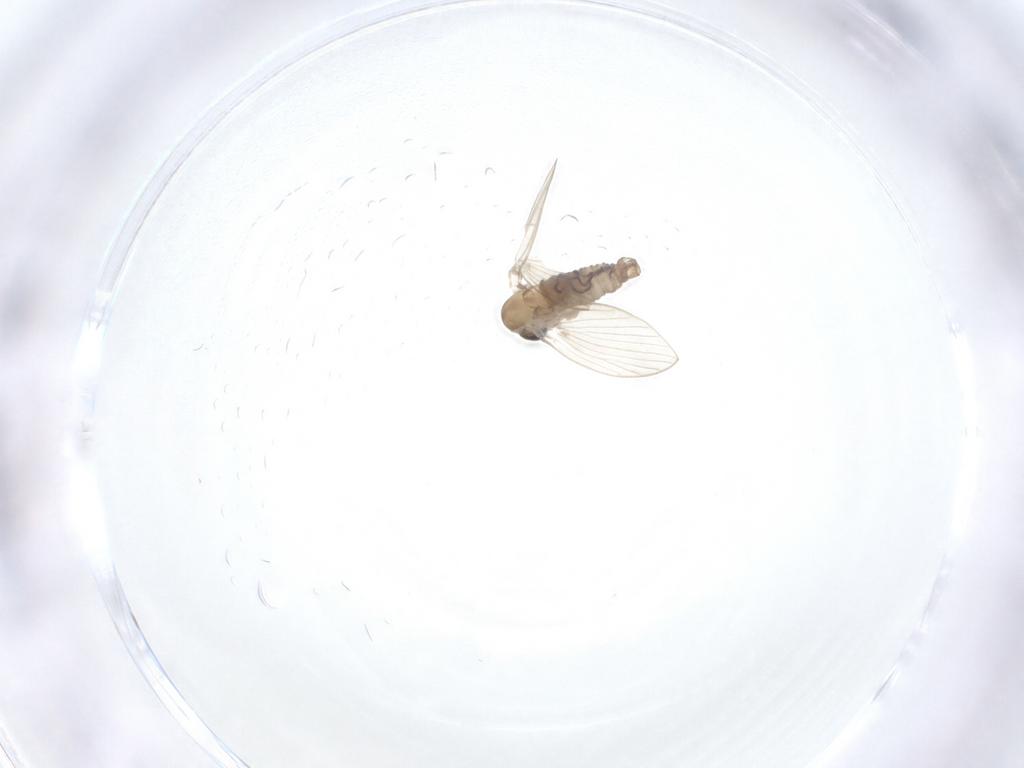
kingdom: Animalia
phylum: Arthropoda
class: Insecta
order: Diptera
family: Psychodidae
